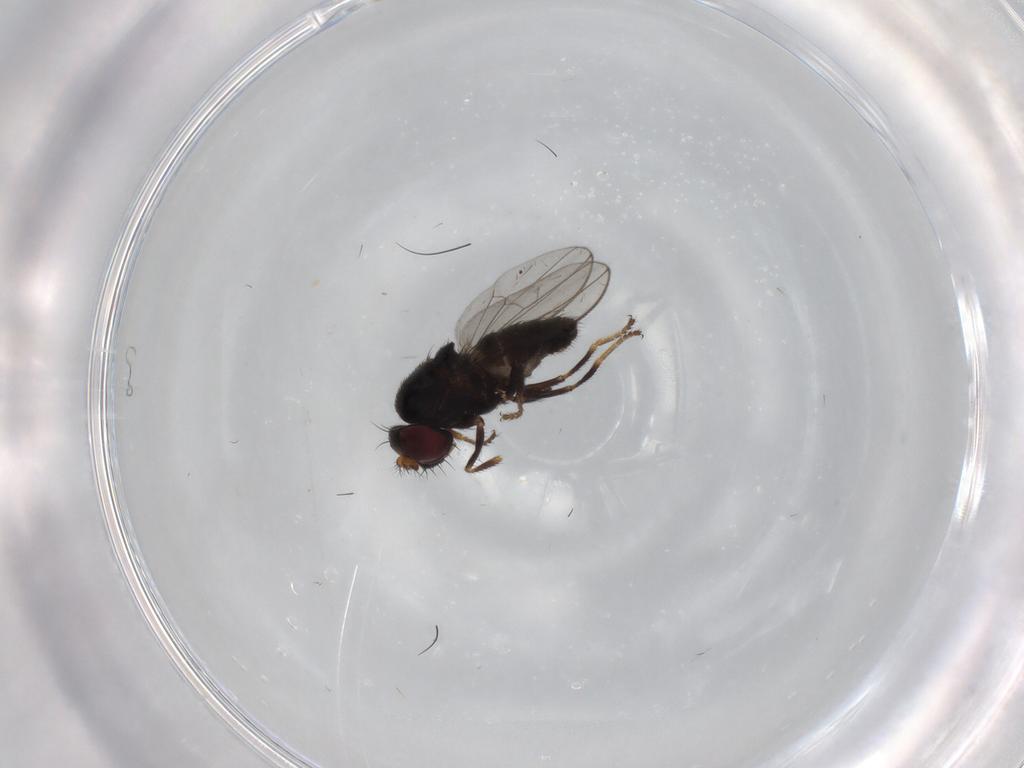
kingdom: Animalia
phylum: Arthropoda
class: Insecta
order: Diptera
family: Ephydridae
